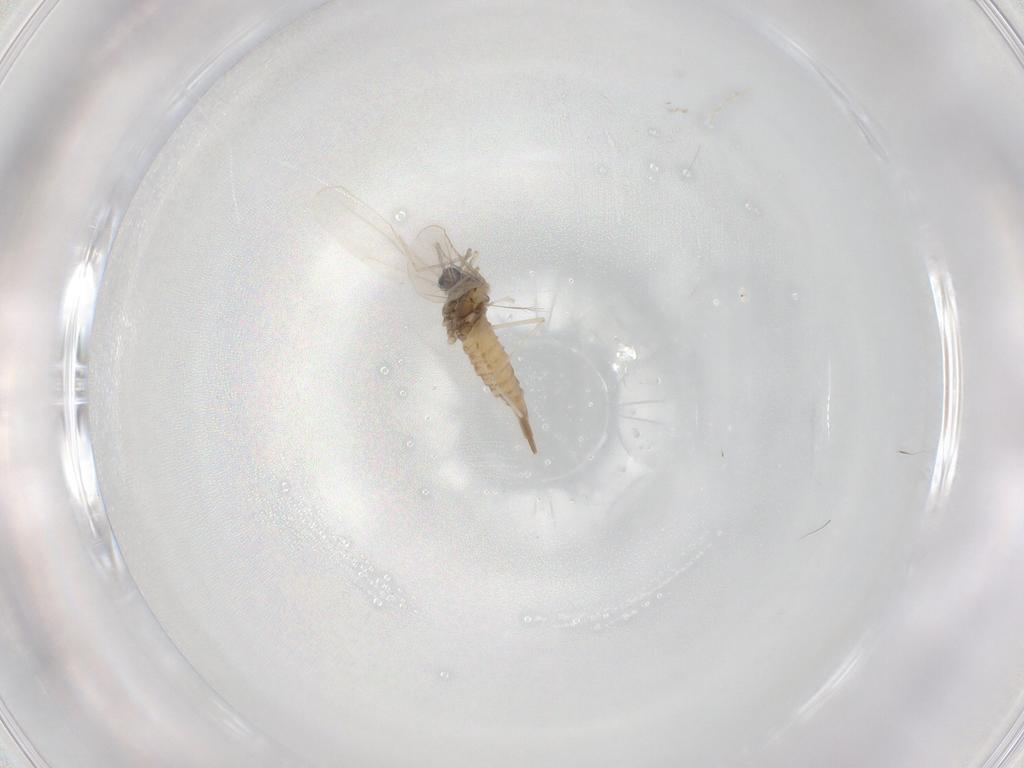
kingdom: Animalia
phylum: Arthropoda
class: Insecta
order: Diptera
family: Cecidomyiidae
